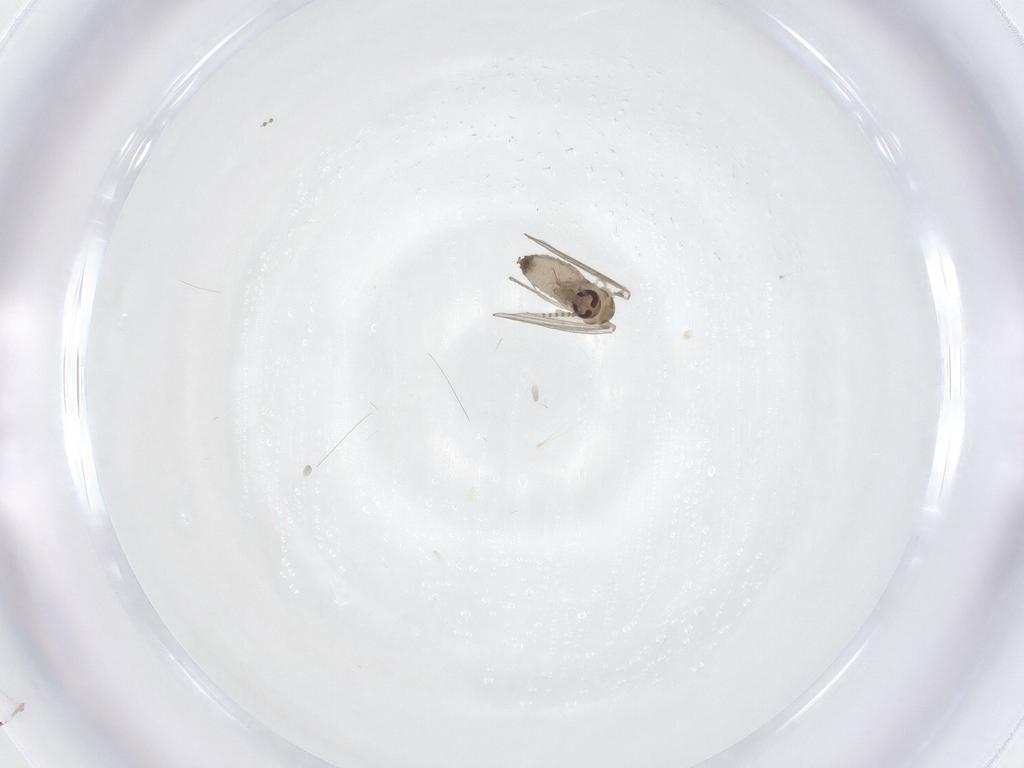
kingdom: Animalia
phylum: Arthropoda
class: Insecta
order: Diptera
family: Psychodidae
